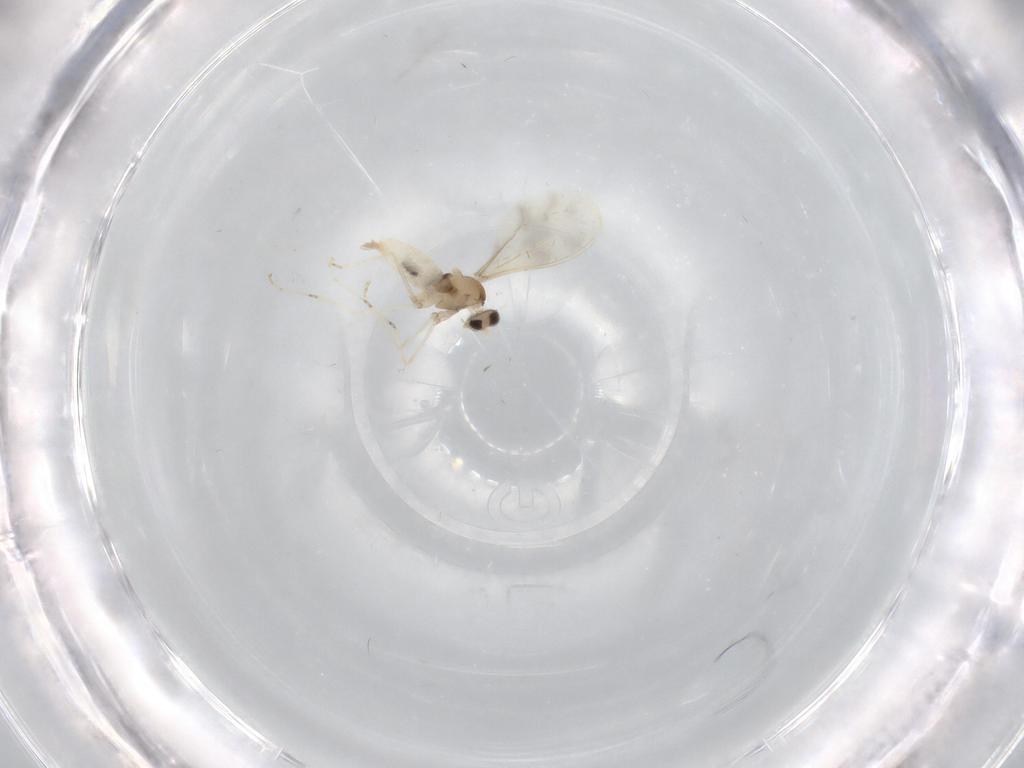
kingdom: Animalia
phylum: Arthropoda
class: Insecta
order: Diptera
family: Cecidomyiidae
